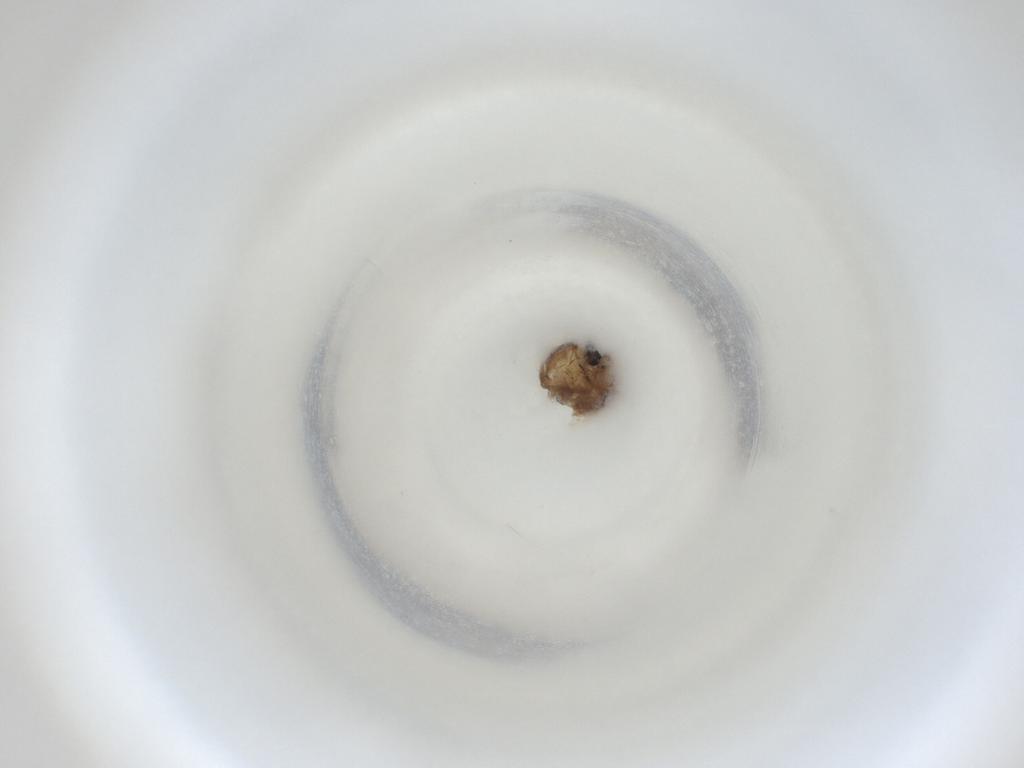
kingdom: Animalia
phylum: Arthropoda
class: Insecta
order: Diptera
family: Cecidomyiidae
